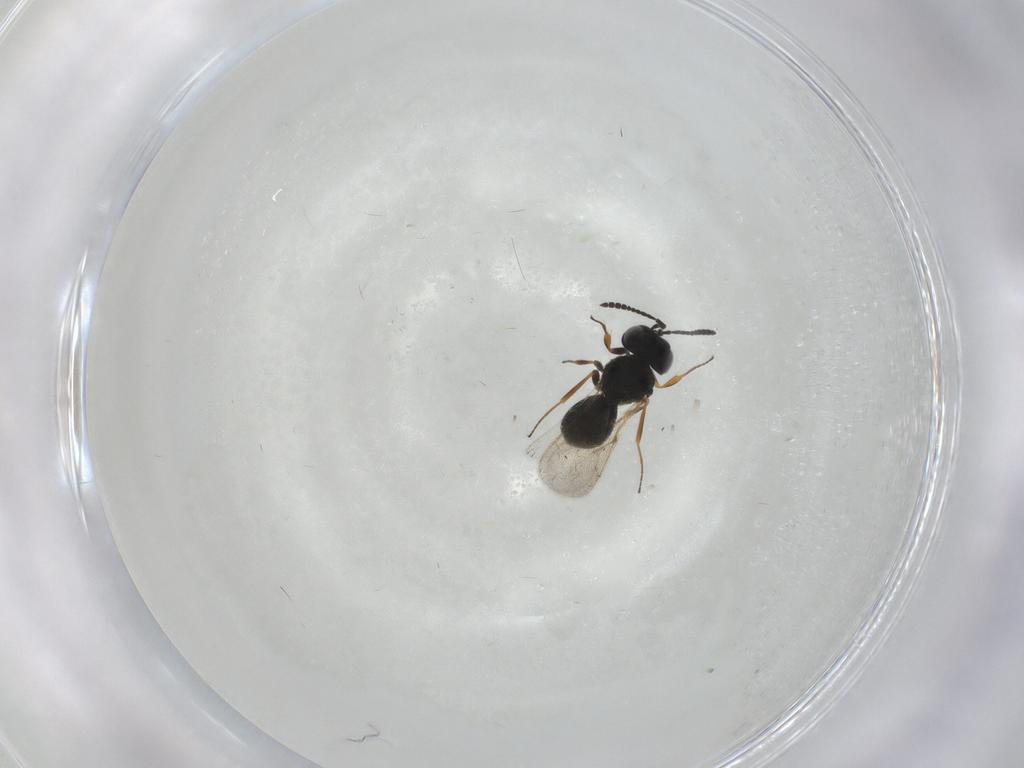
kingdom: Animalia
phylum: Arthropoda
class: Insecta
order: Hymenoptera
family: Scelionidae
